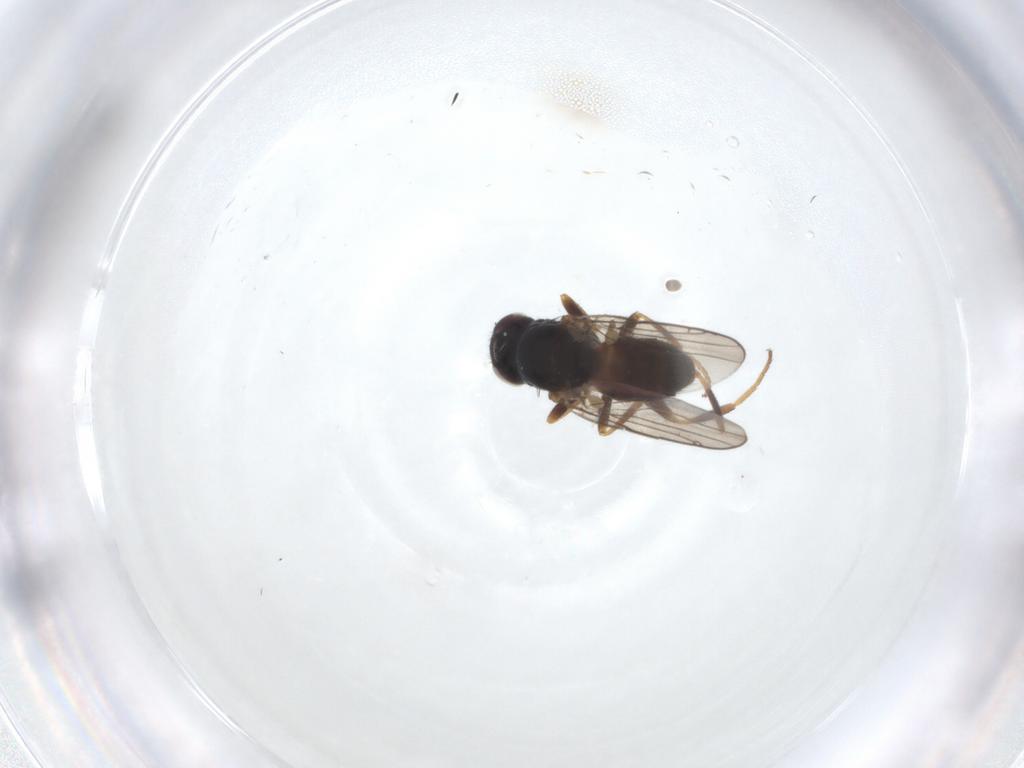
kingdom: Animalia
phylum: Arthropoda
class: Insecta
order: Diptera
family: Chloropidae
